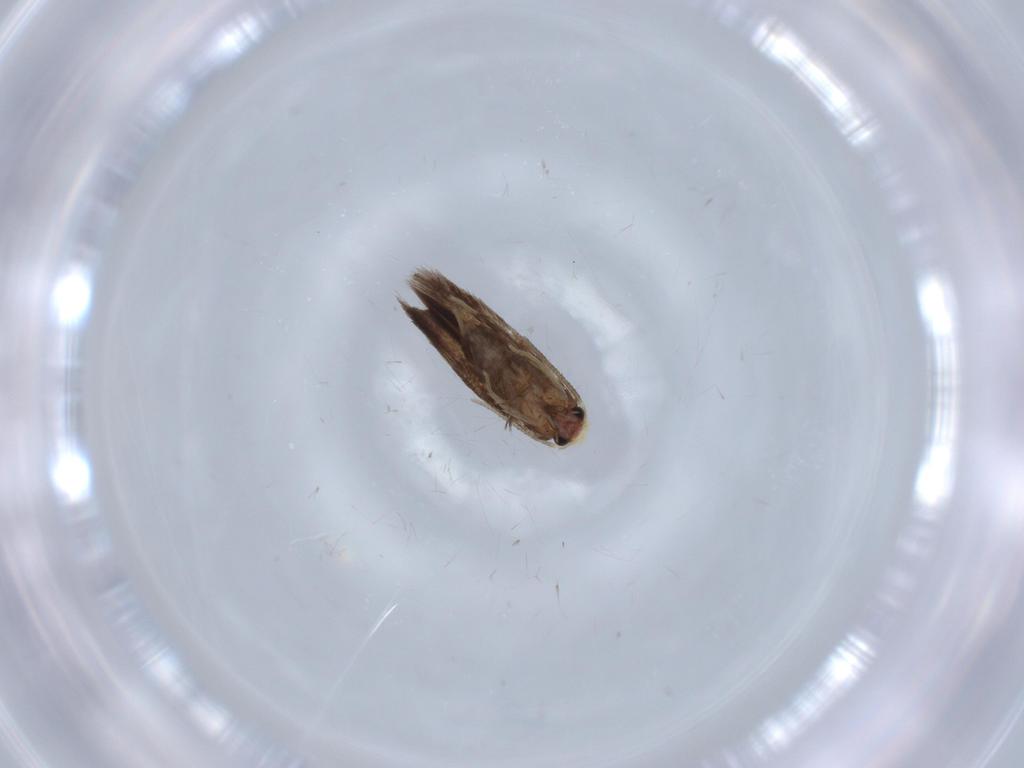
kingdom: Animalia
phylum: Arthropoda
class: Insecta
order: Lepidoptera
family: Nepticulidae
